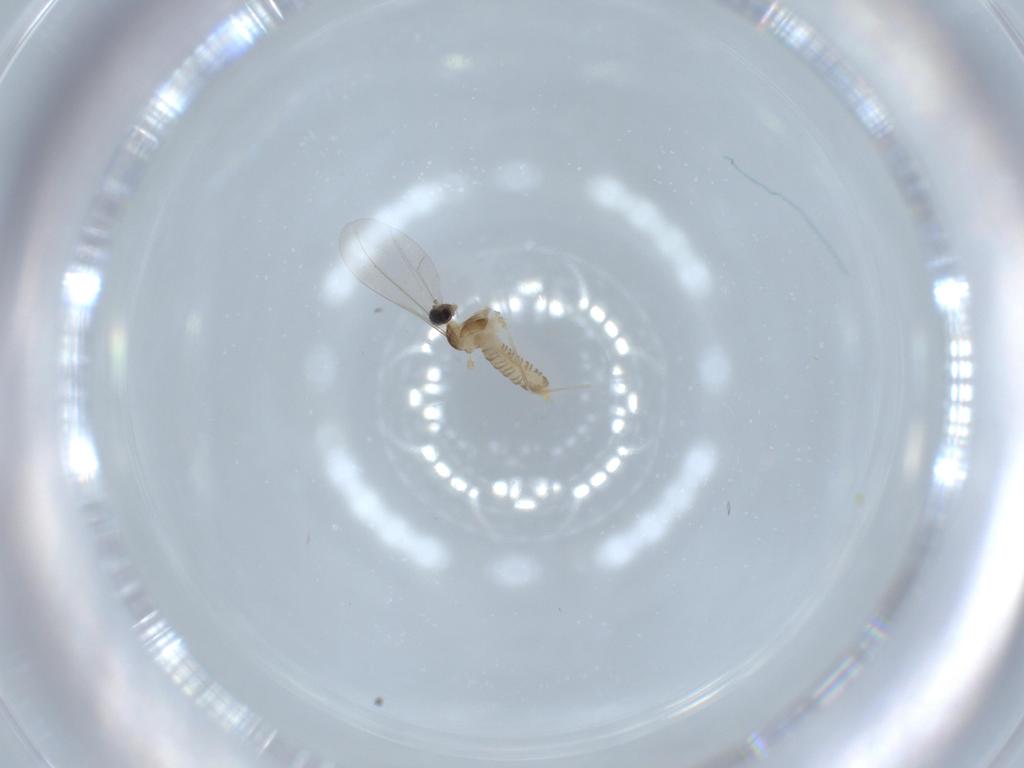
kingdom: Animalia
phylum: Arthropoda
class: Insecta
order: Diptera
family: Cecidomyiidae
